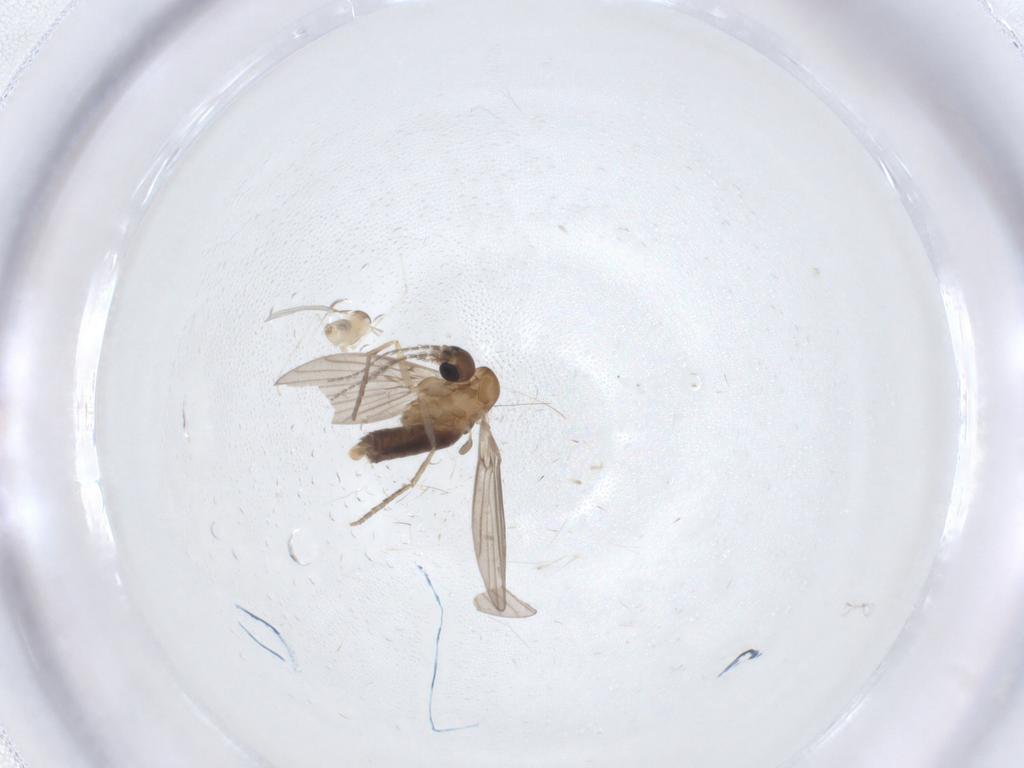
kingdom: Animalia
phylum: Arthropoda
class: Insecta
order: Diptera
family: Cecidomyiidae
